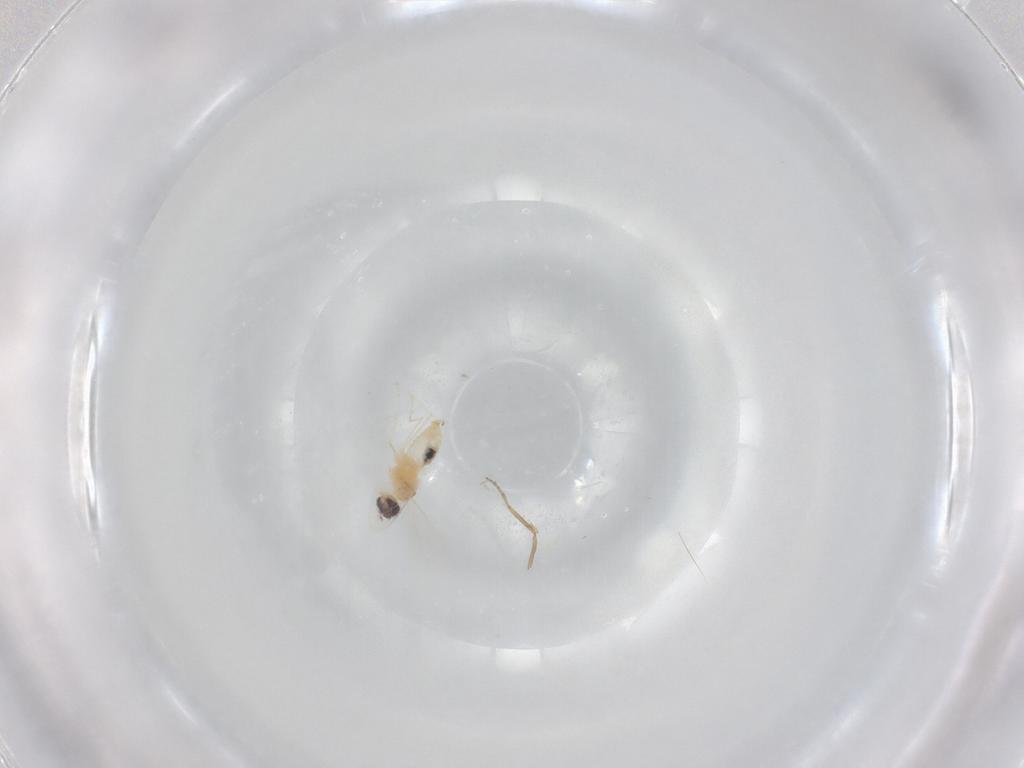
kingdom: Animalia
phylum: Arthropoda
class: Insecta
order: Diptera
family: Cecidomyiidae
